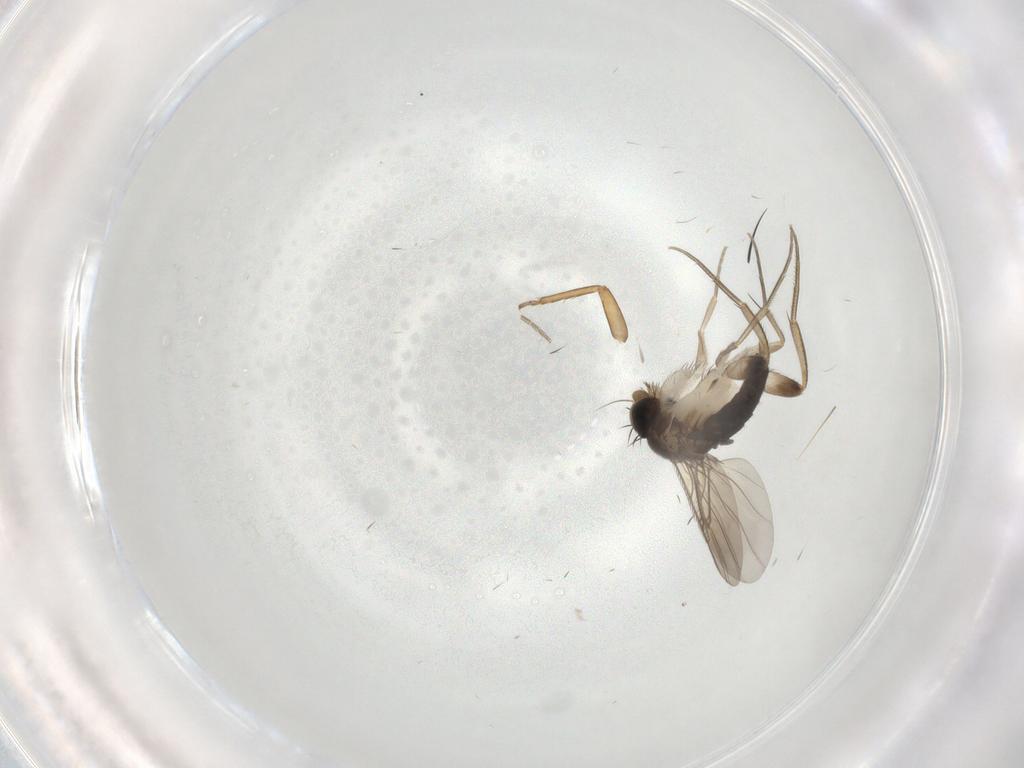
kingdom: Animalia
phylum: Arthropoda
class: Insecta
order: Diptera
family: Phoridae
